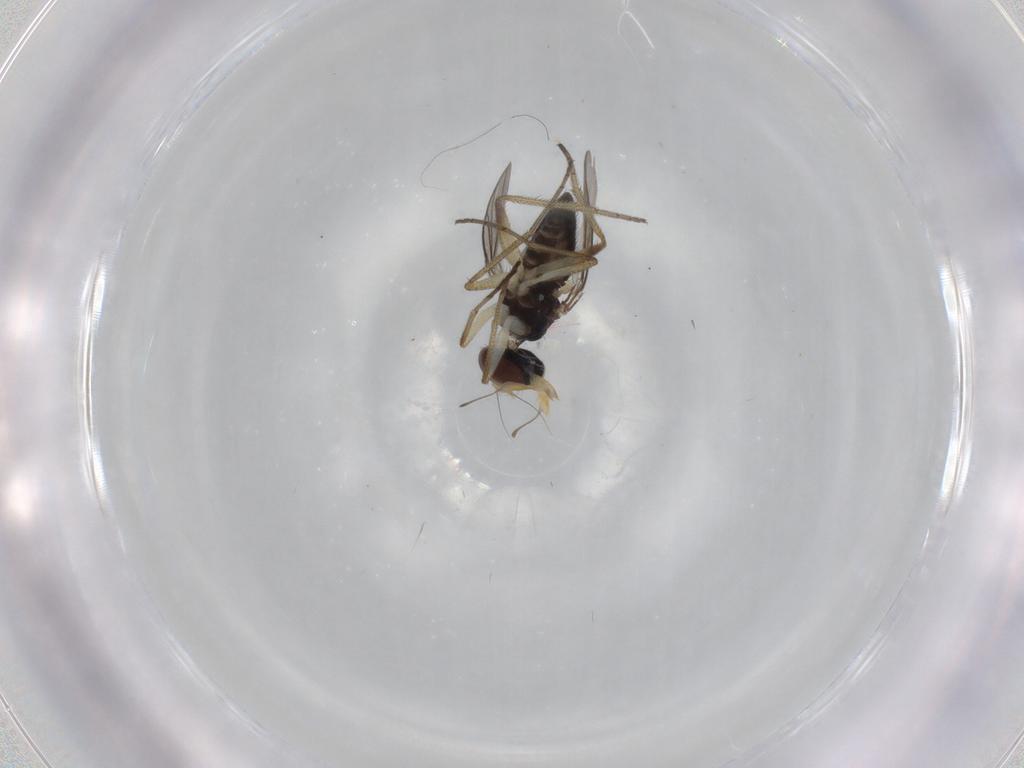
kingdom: Animalia
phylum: Arthropoda
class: Insecta
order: Diptera
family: Dolichopodidae
